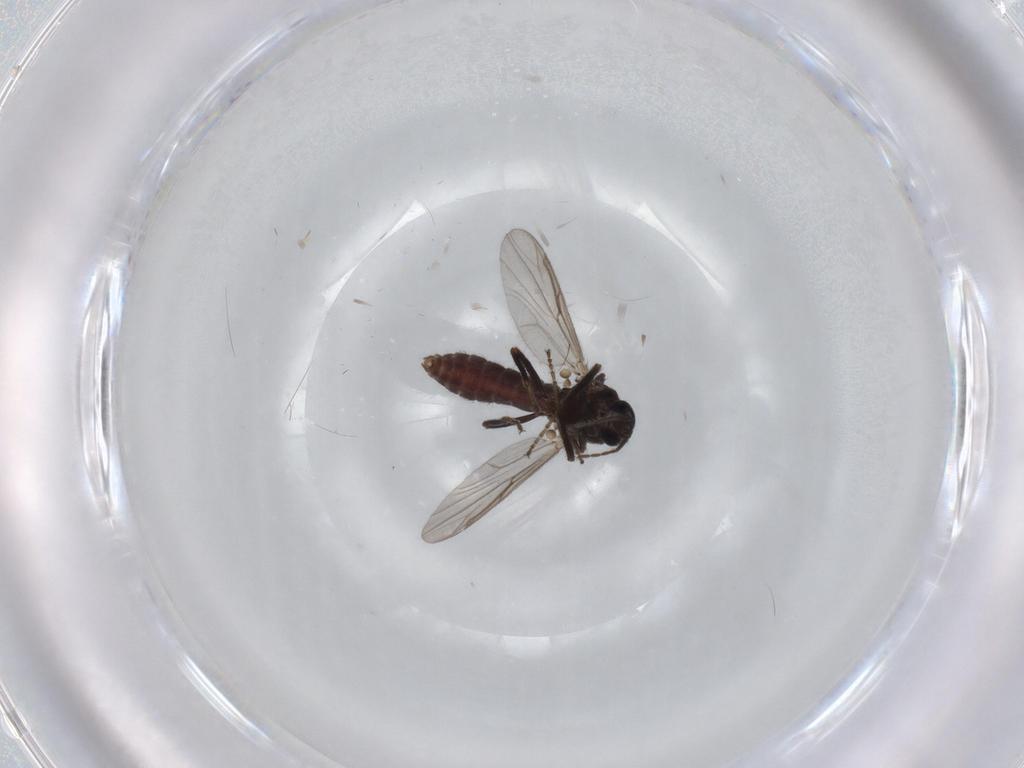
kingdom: Animalia
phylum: Arthropoda
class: Insecta
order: Diptera
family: Ceratopogonidae
